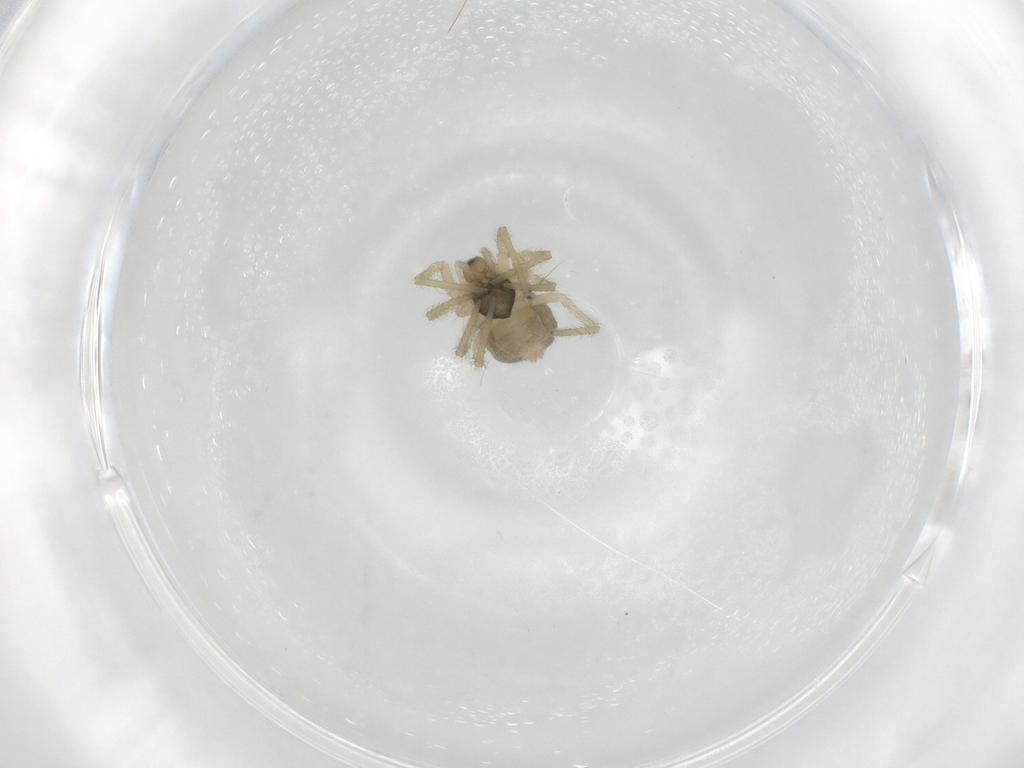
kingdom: Animalia
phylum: Arthropoda
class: Arachnida
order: Araneae
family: Linyphiidae
